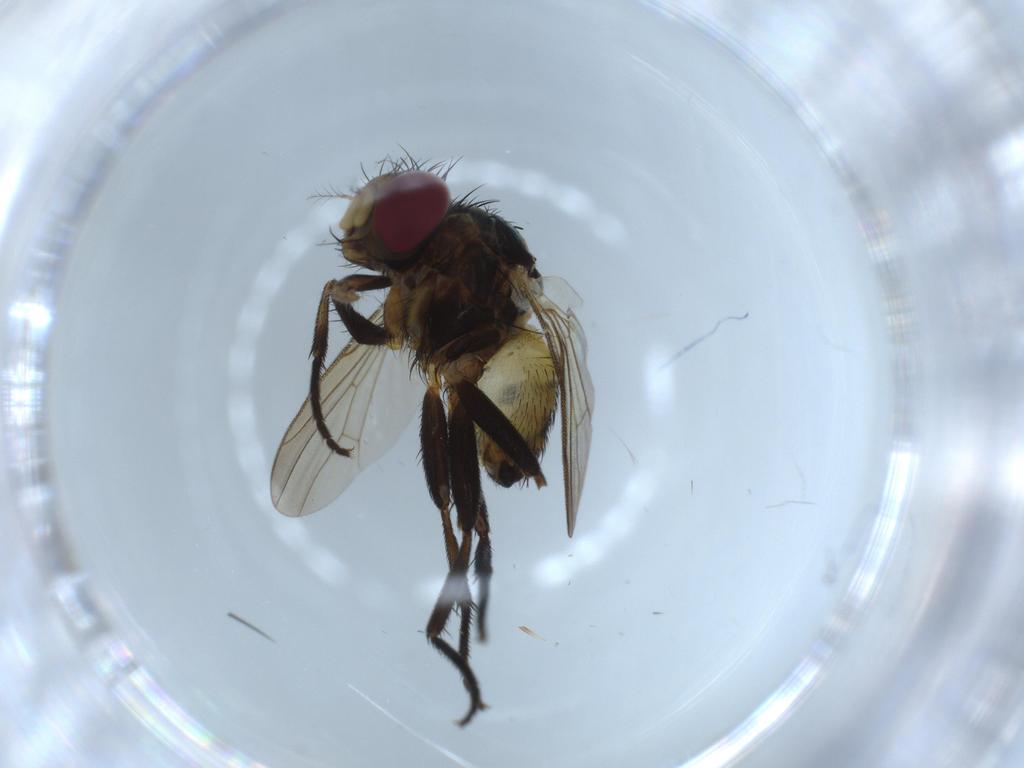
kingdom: Animalia
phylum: Arthropoda
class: Insecta
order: Diptera
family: Anthomyiidae
